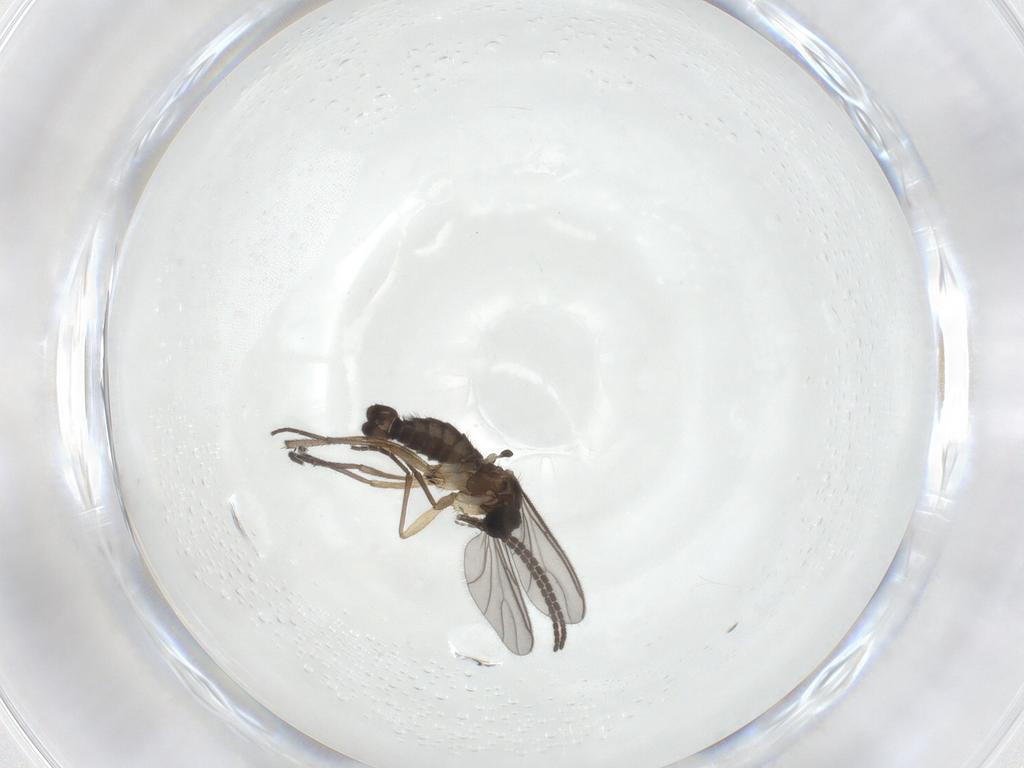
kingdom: Animalia
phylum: Arthropoda
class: Insecta
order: Diptera
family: Sciaridae
